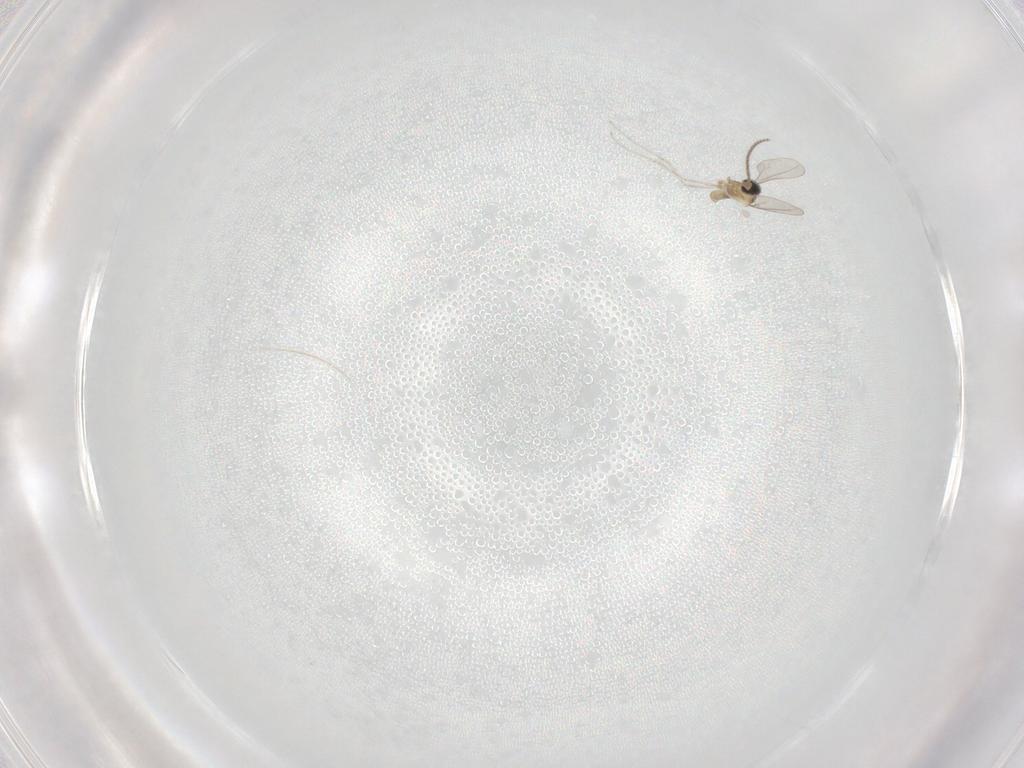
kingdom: Animalia
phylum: Arthropoda
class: Insecta
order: Diptera
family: Cecidomyiidae
